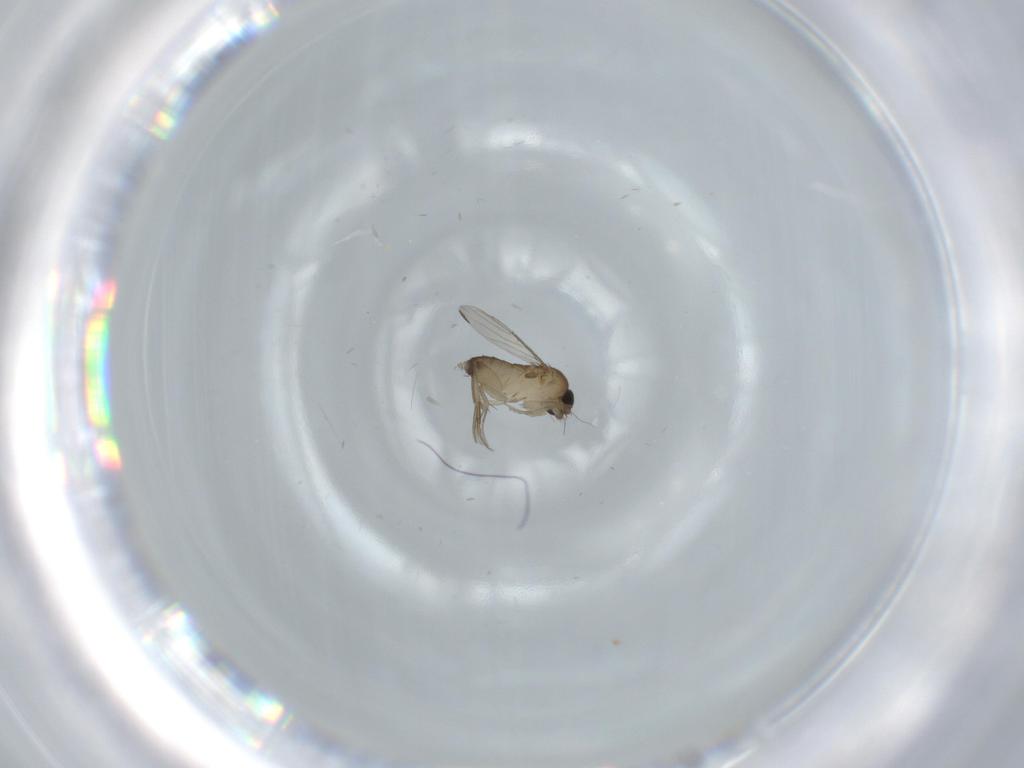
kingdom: Animalia
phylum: Arthropoda
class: Insecta
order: Diptera
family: Phoridae
